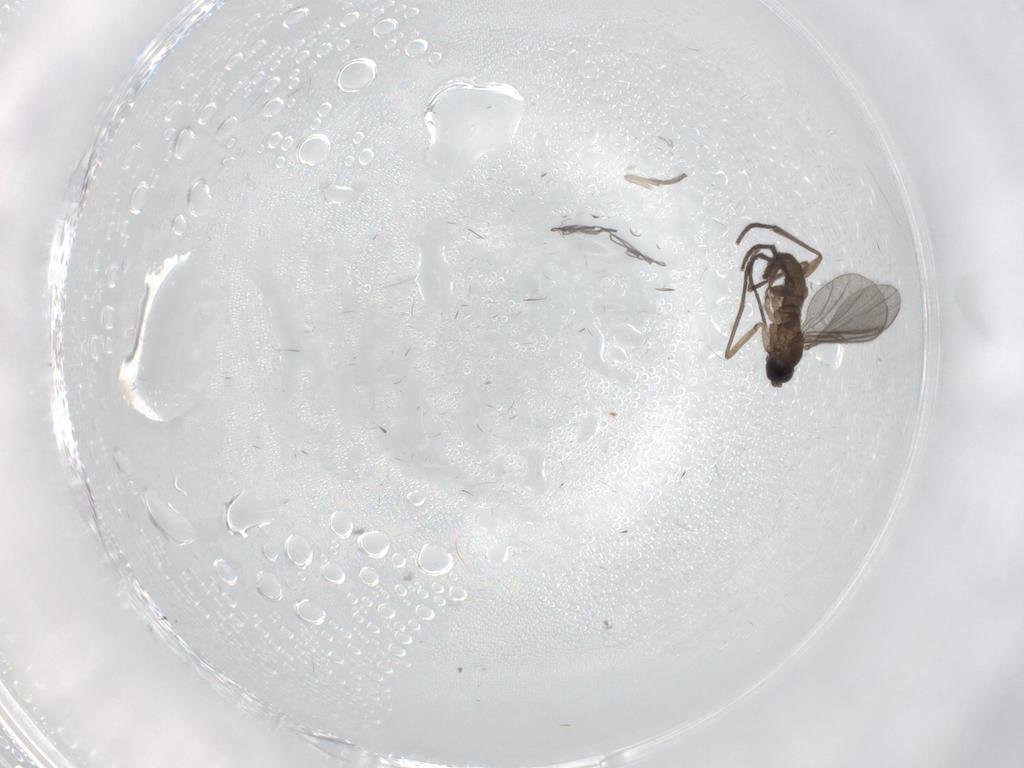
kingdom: Animalia
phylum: Arthropoda
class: Insecta
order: Diptera
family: Sciaridae
